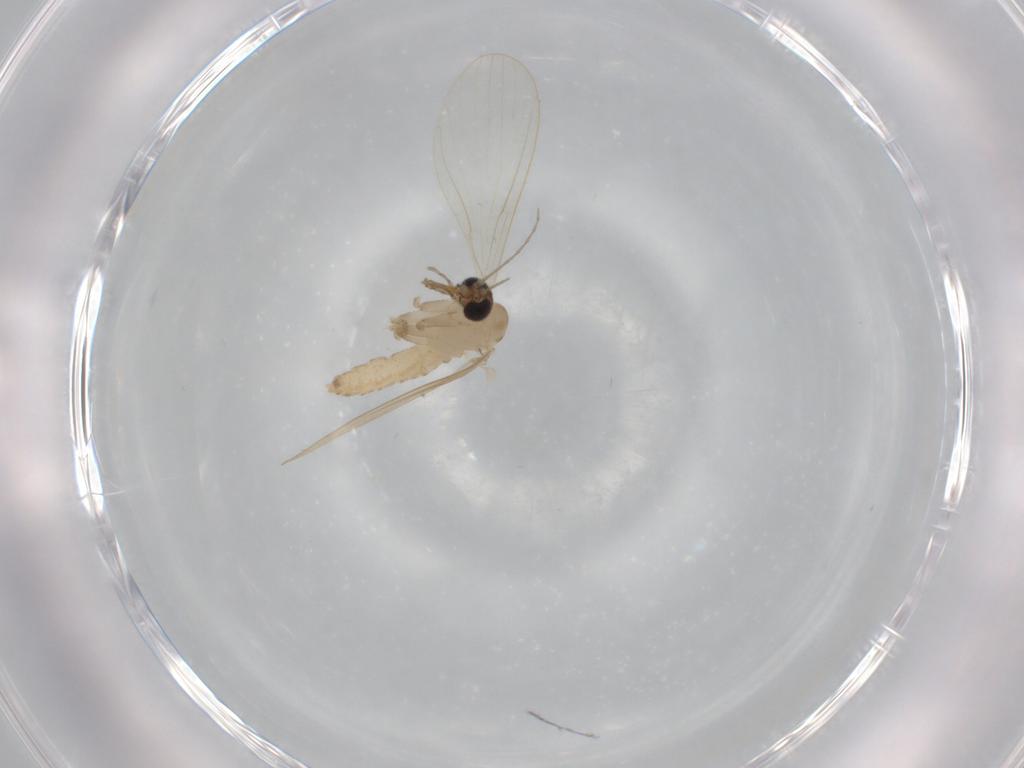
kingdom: Animalia
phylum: Arthropoda
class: Insecta
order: Diptera
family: Psychodidae
